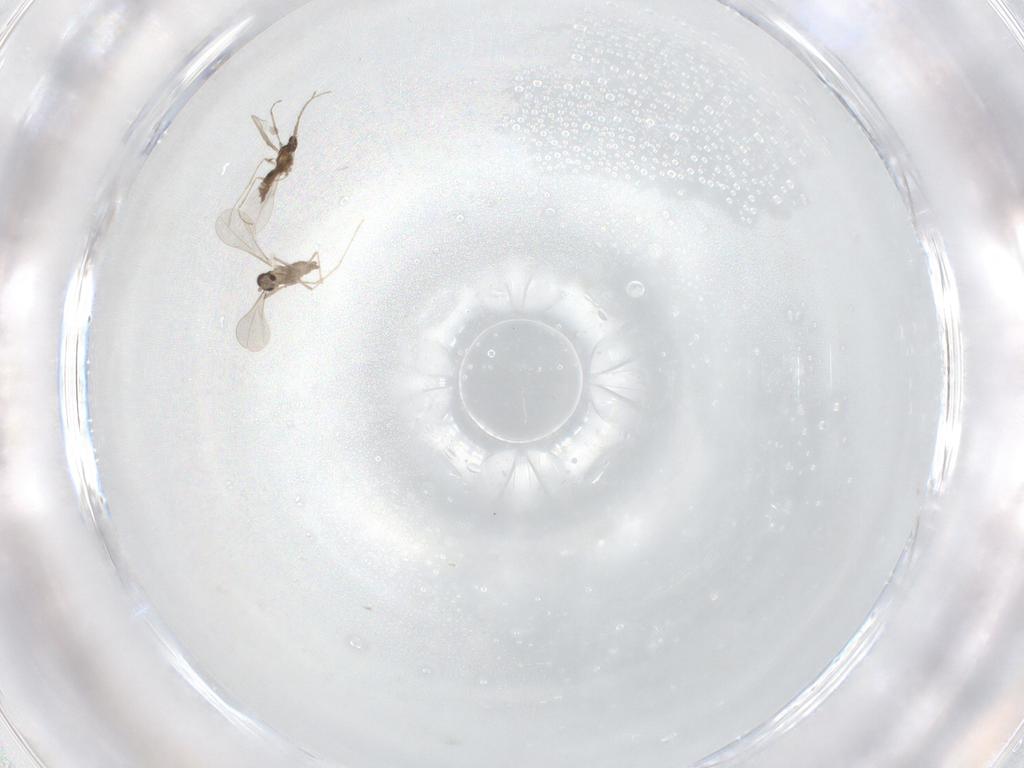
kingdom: Animalia
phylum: Arthropoda
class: Insecta
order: Diptera
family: Cecidomyiidae
